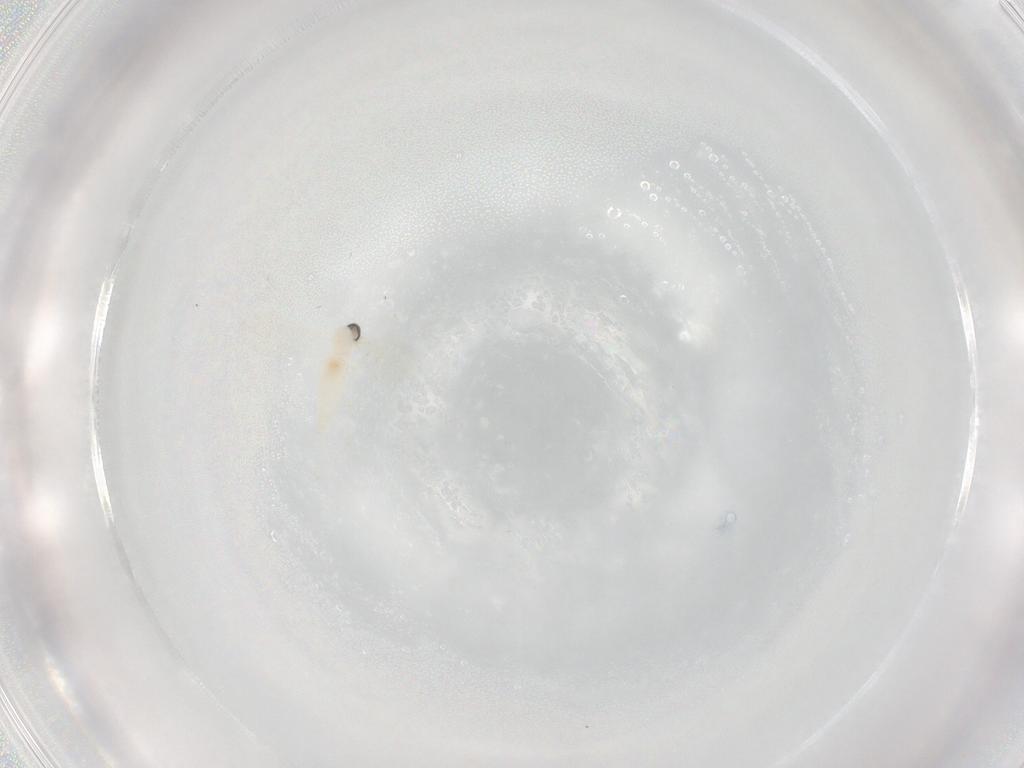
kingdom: Animalia
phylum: Arthropoda
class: Insecta
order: Diptera
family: Cecidomyiidae
